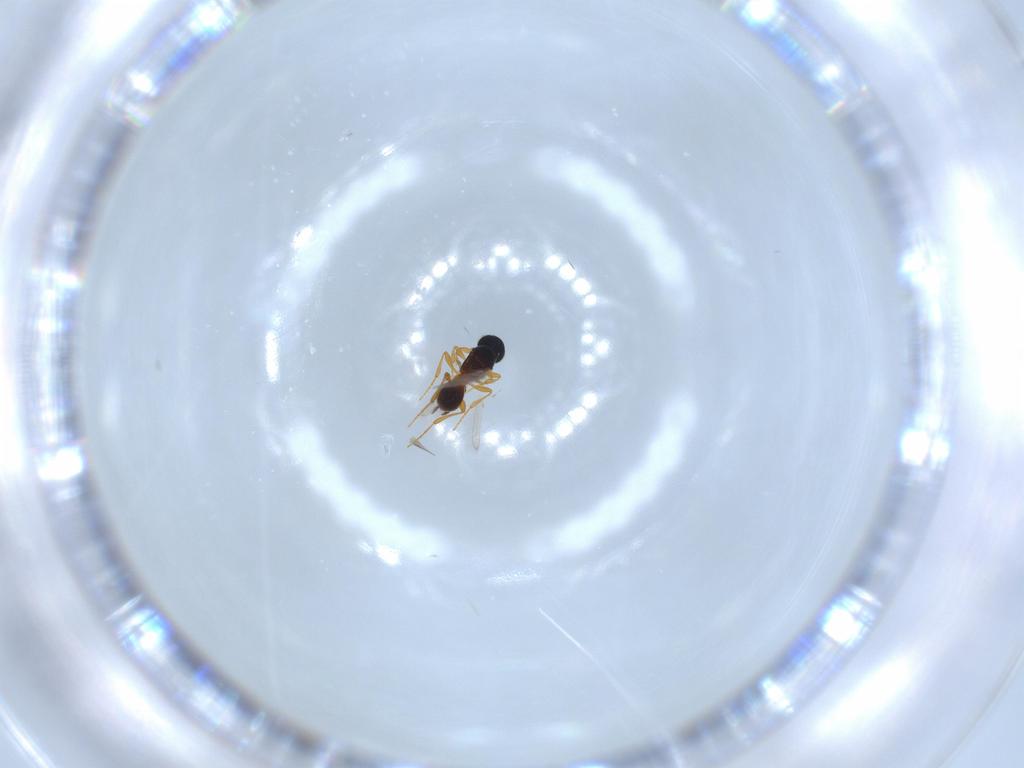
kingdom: Animalia
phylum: Arthropoda
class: Insecta
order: Hymenoptera
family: Platygastridae
